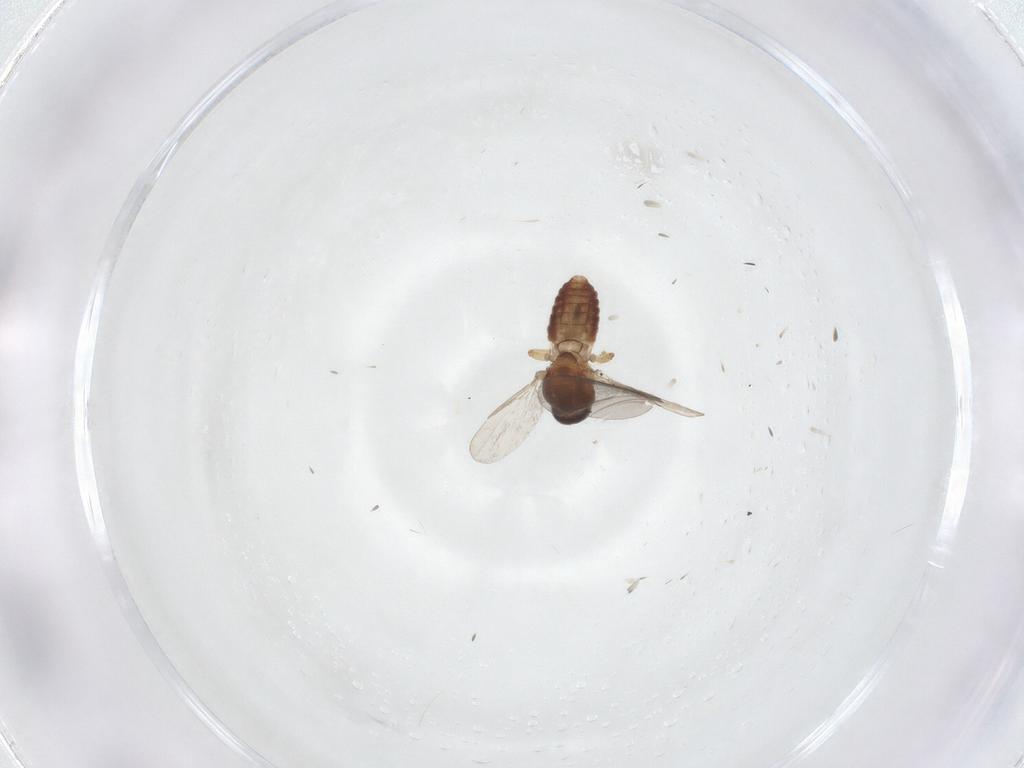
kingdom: Animalia
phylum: Arthropoda
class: Insecta
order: Diptera
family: Ceratopogonidae
